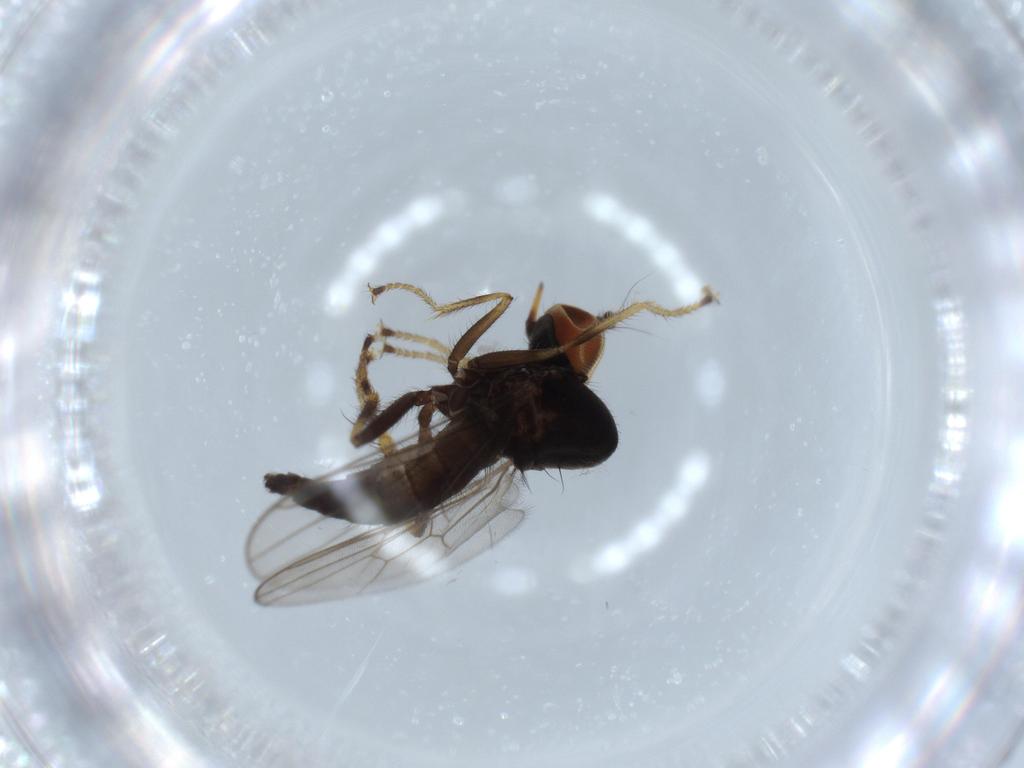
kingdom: Animalia
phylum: Arthropoda
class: Insecta
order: Diptera
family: Hybotidae
